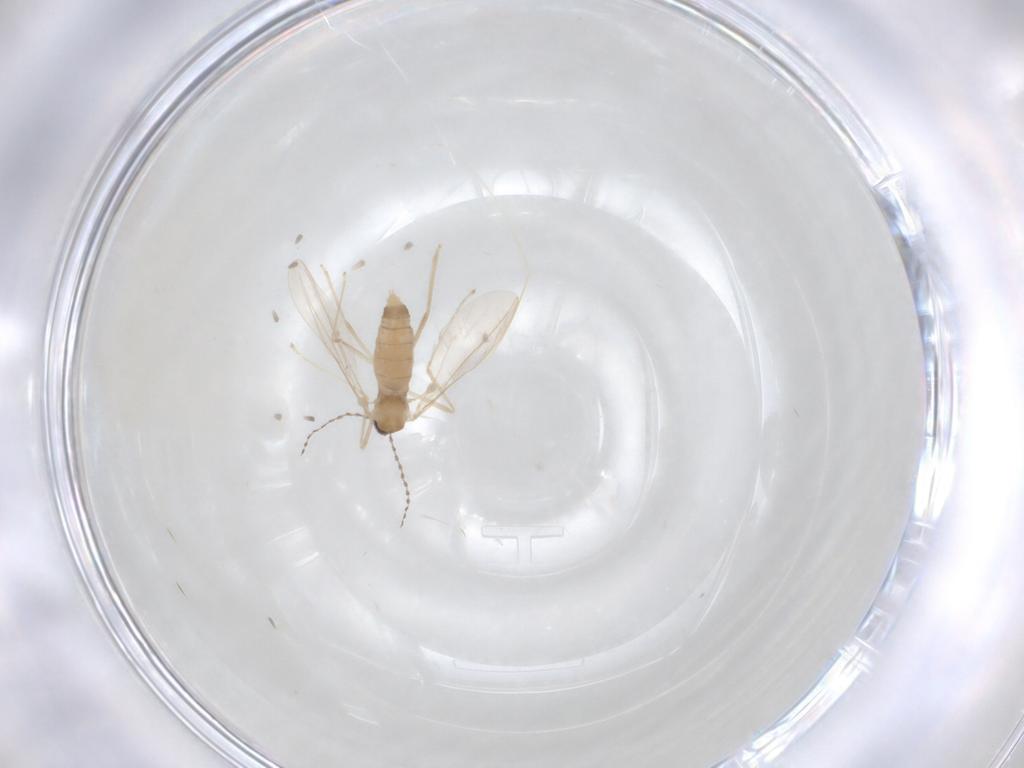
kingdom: Animalia
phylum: Arthropoda
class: Insecta
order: Diptera
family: Cecidomyiidae
